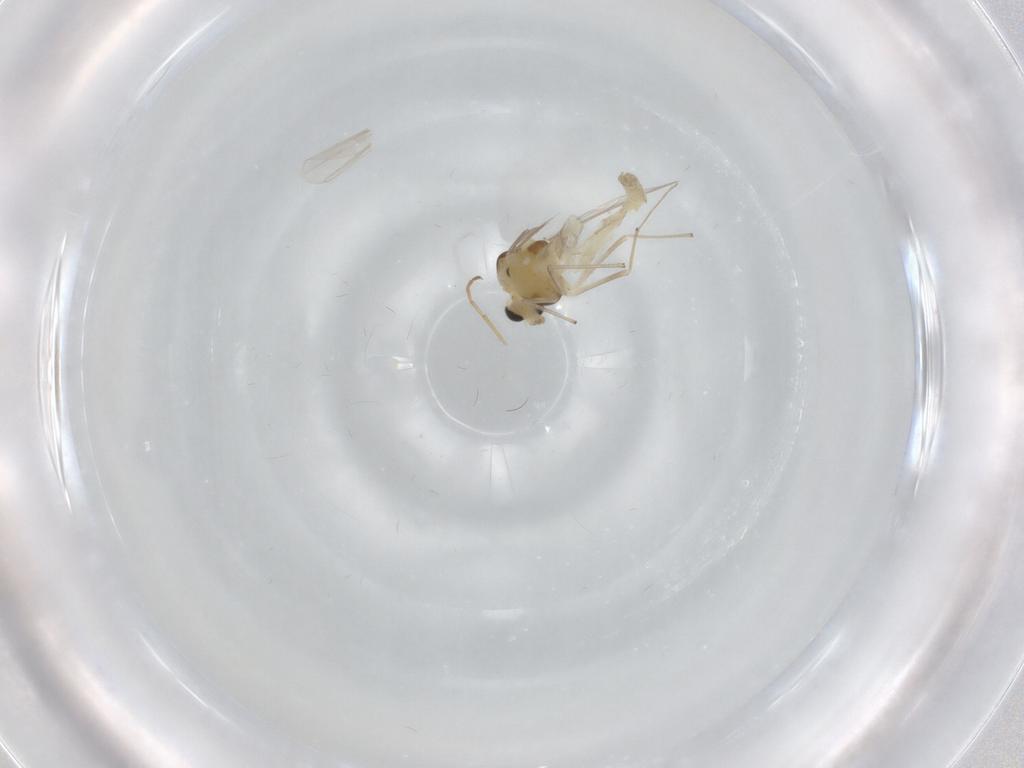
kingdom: Animalia
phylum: Arthropoda
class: Insecta
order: Diptera
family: Chironomidae
